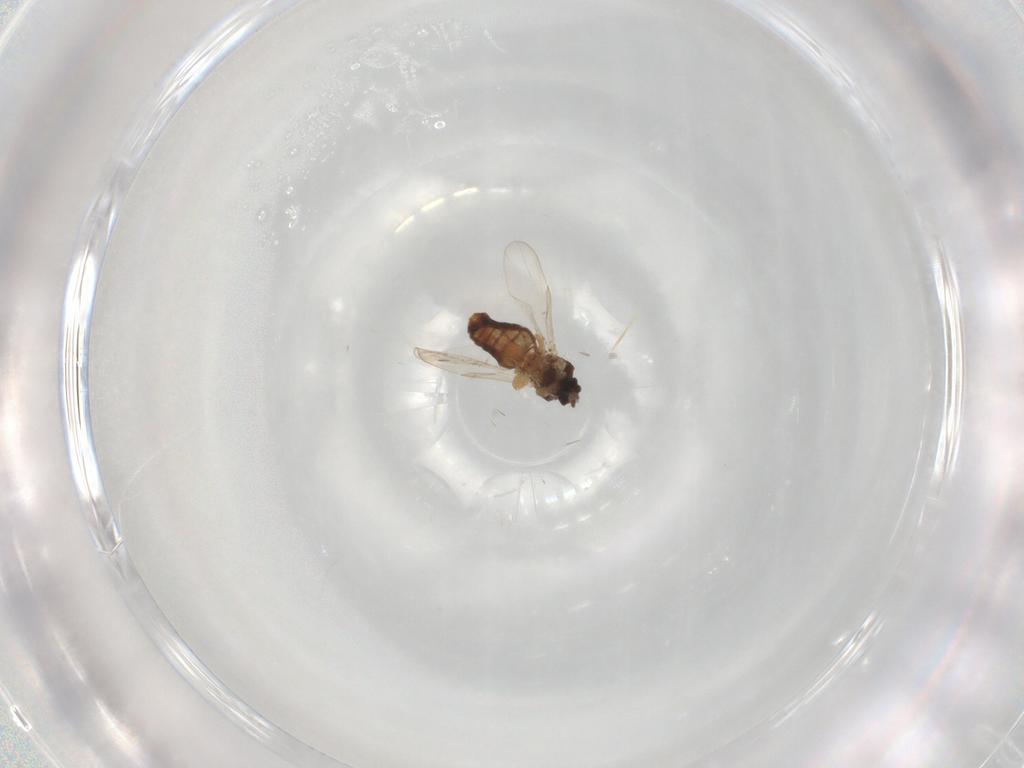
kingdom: Animalia
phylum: Arthropoda
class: Insecta
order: Diptera
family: Ceratopogonidae
